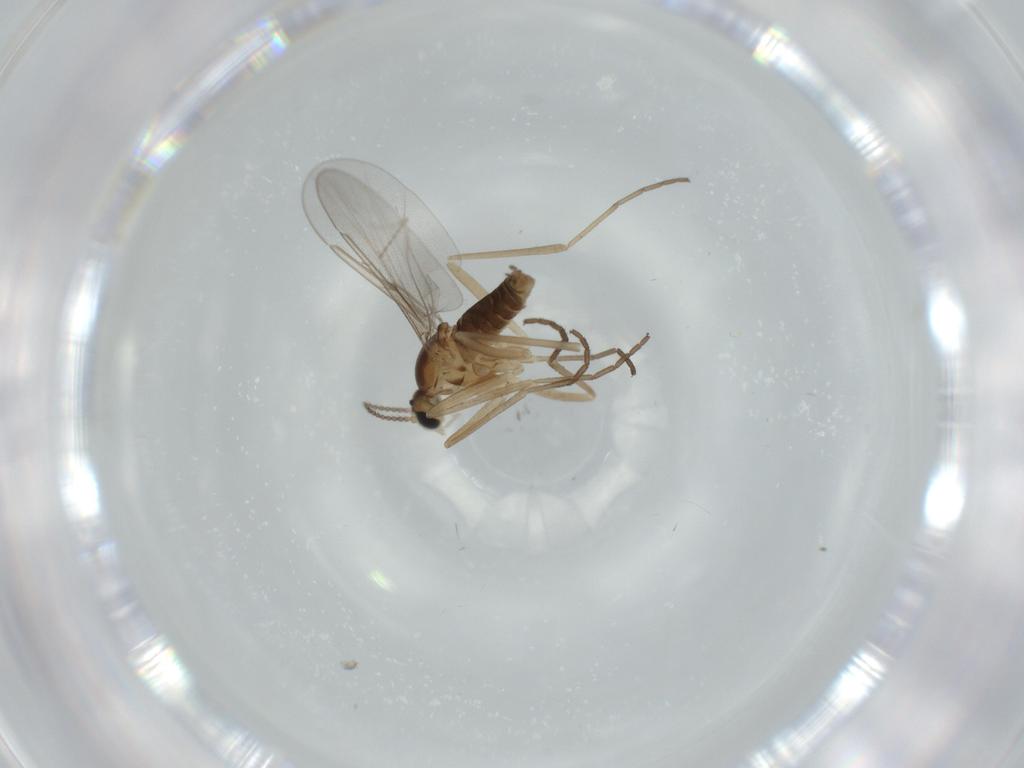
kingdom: Animalia
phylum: Arthropoda
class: Insecta
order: Diptera
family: Cecidomyiidae
